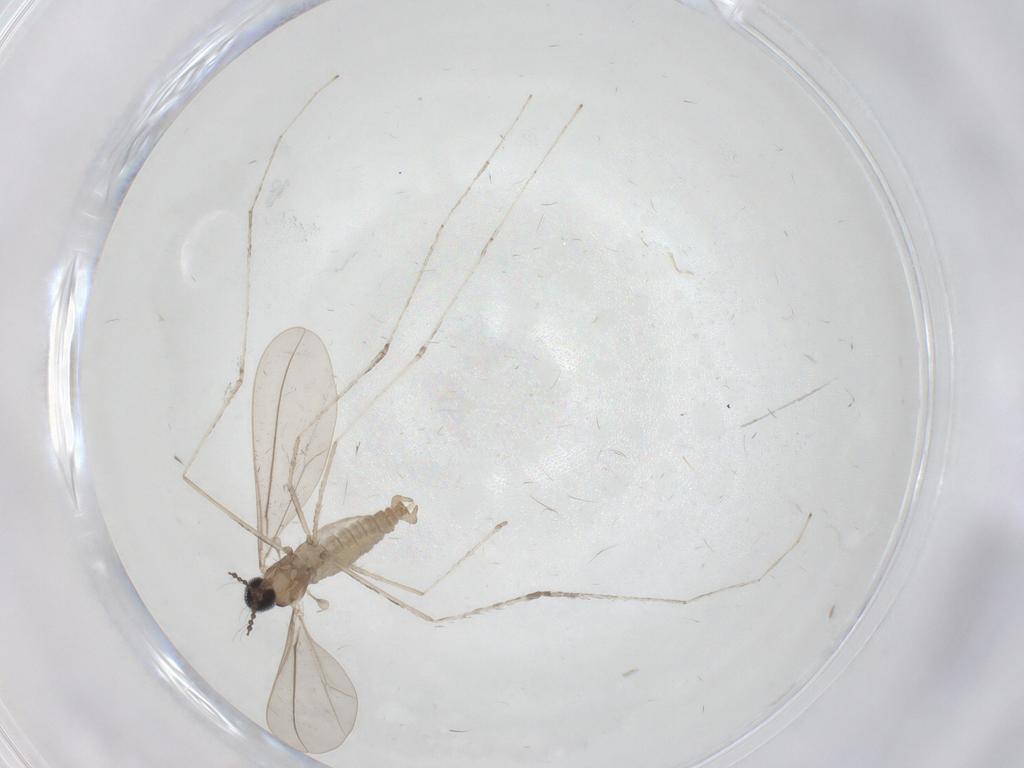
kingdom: Animalia
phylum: Arthropoda
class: Insecta
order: Diptera
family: Cecidomyiidae
